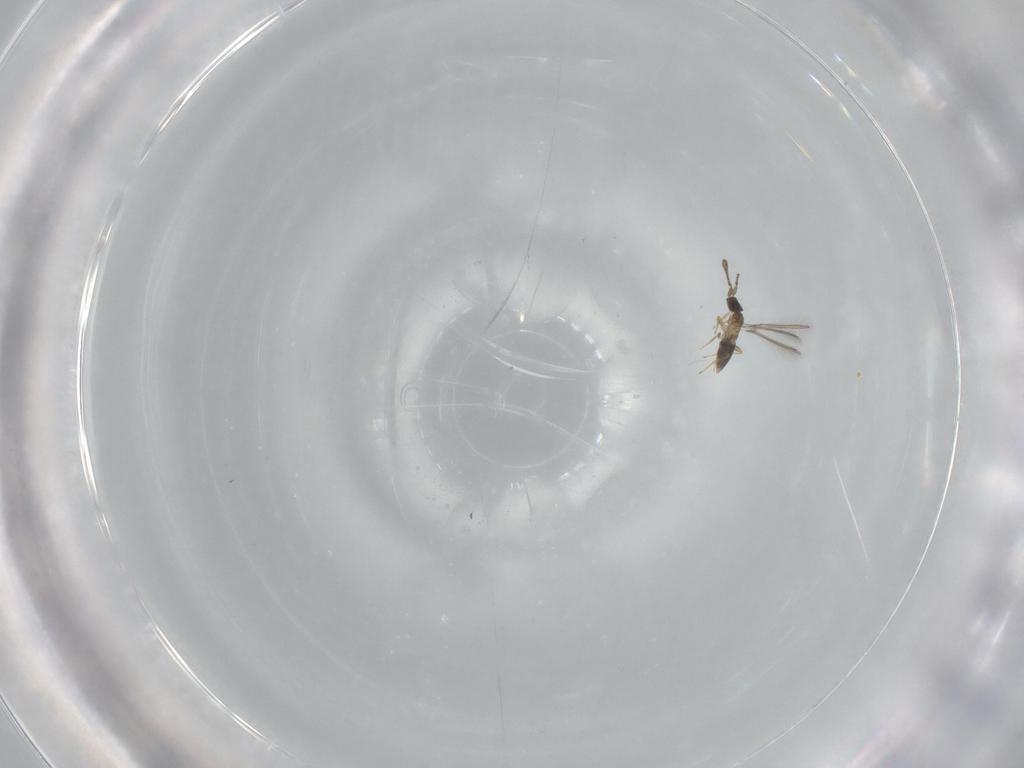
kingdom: Animalia
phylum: Arthropoda
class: Insecta
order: Hymenoptera
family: Mymaridae
